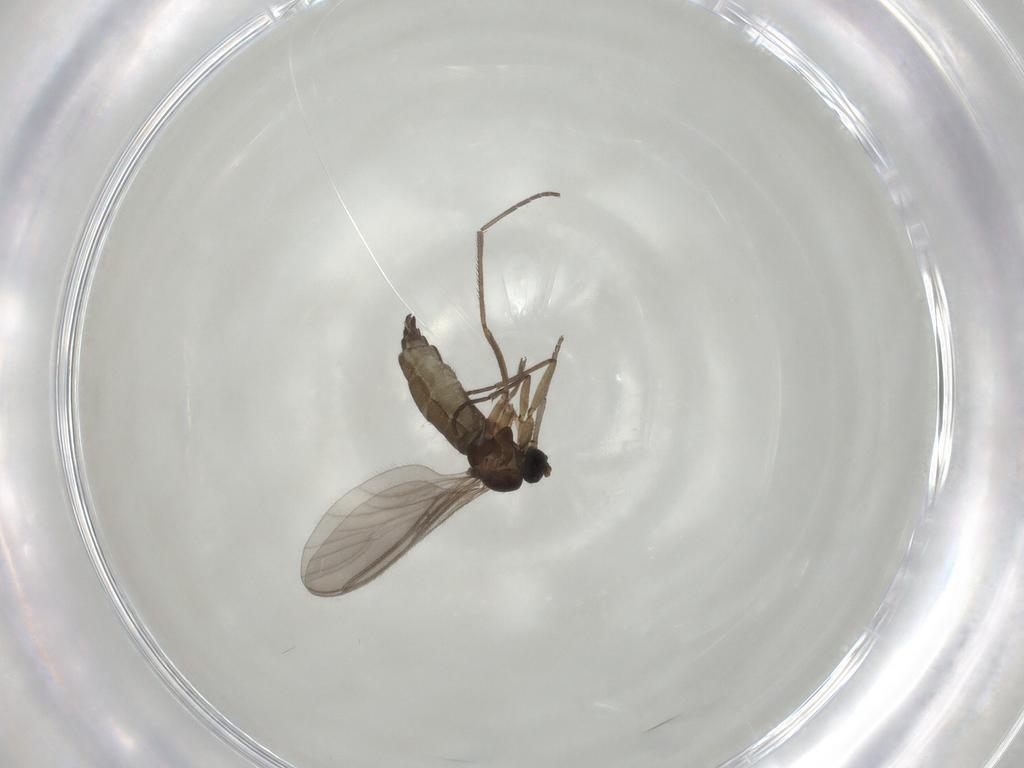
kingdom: Animalia
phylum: Arthropoda
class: Insecta
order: Diptera
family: Sciaridae
